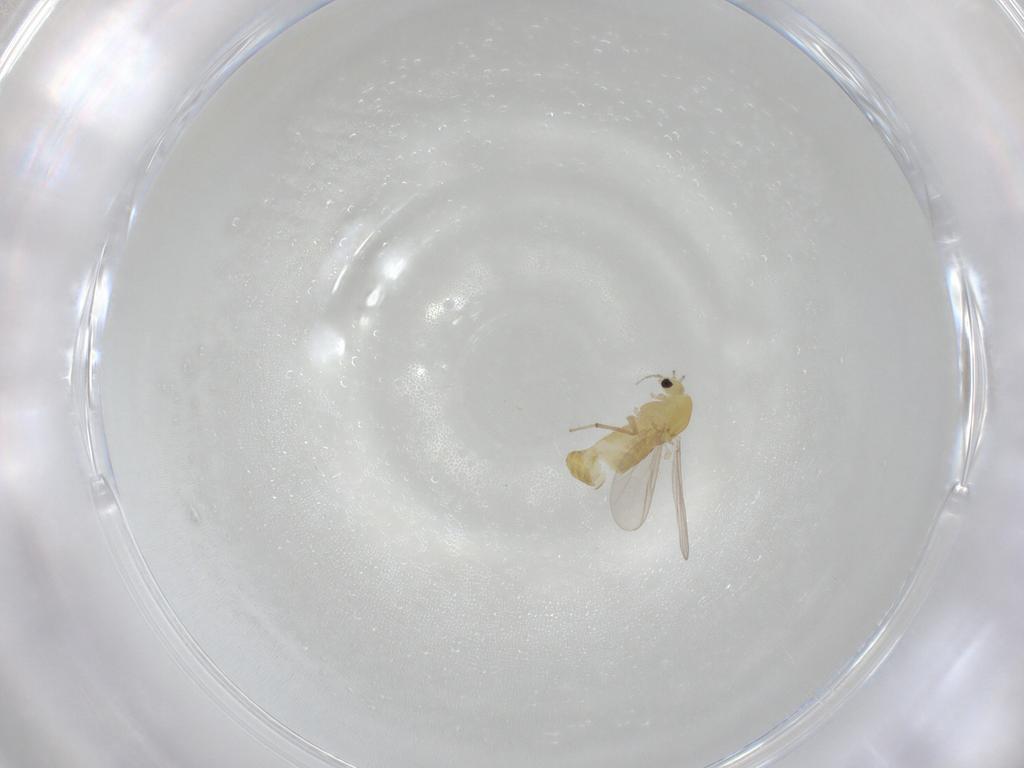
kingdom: Animalia
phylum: Arthropoda
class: Insecta
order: Diptera
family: Chironomidae
